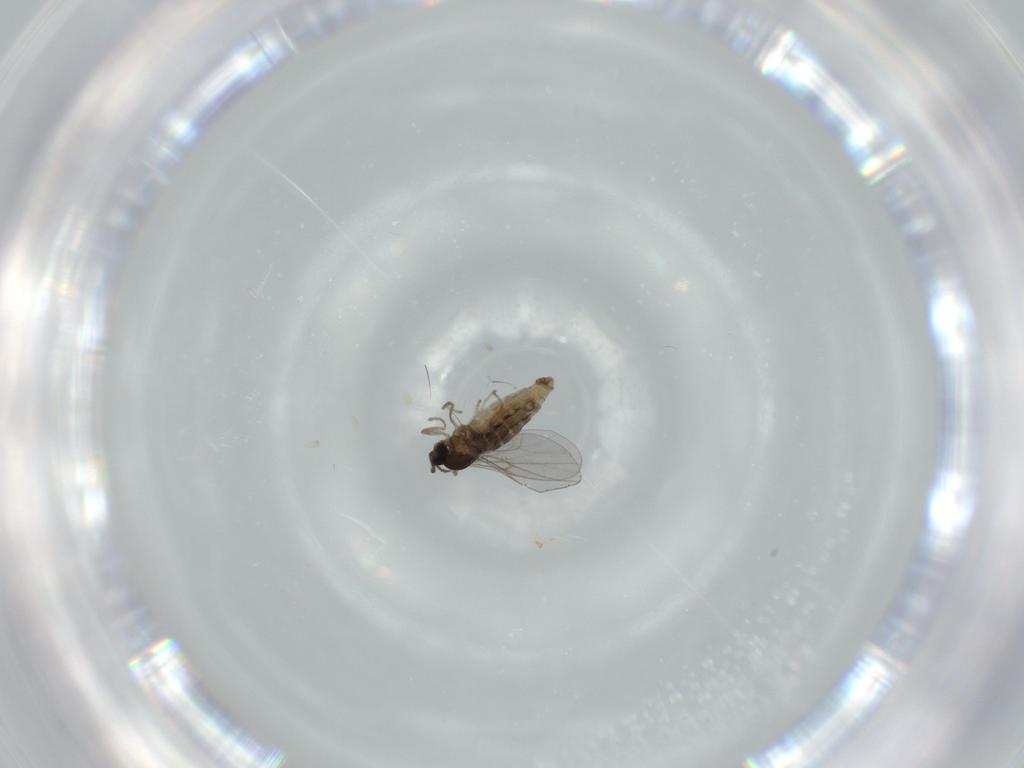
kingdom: Animalia
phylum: Arthropoda
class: Insecta
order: Diptera
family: Cecidomyiidae
